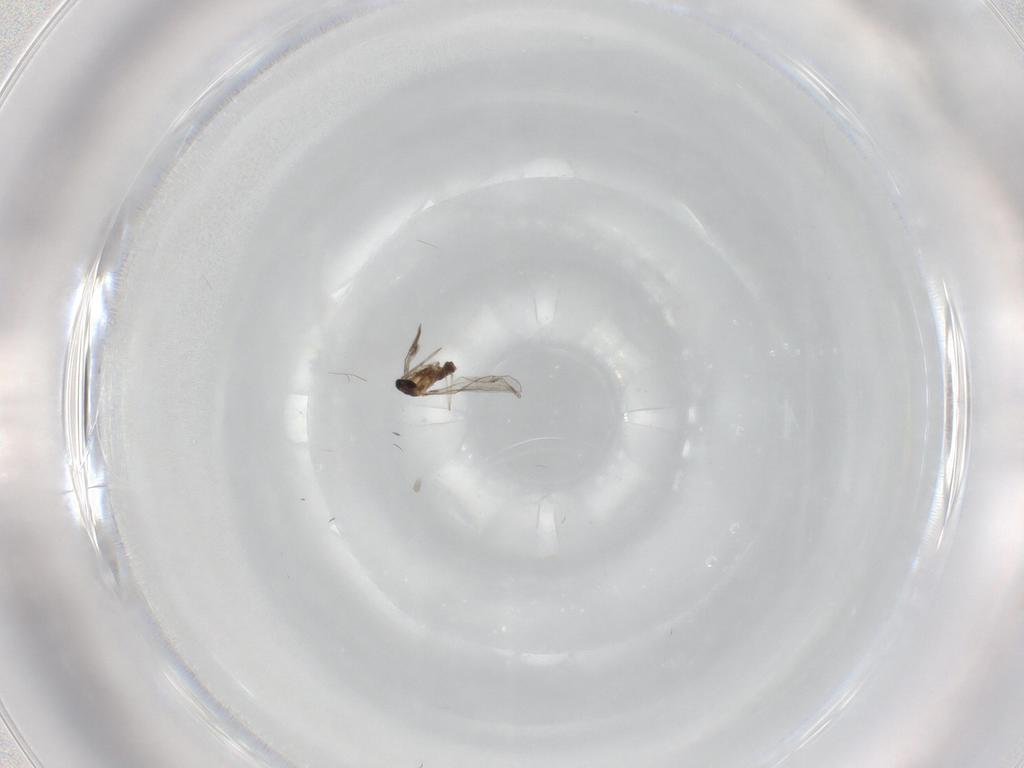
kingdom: Animalia
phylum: Arthropoda
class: Insecta
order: Diptera
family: Cecidomyiidae
